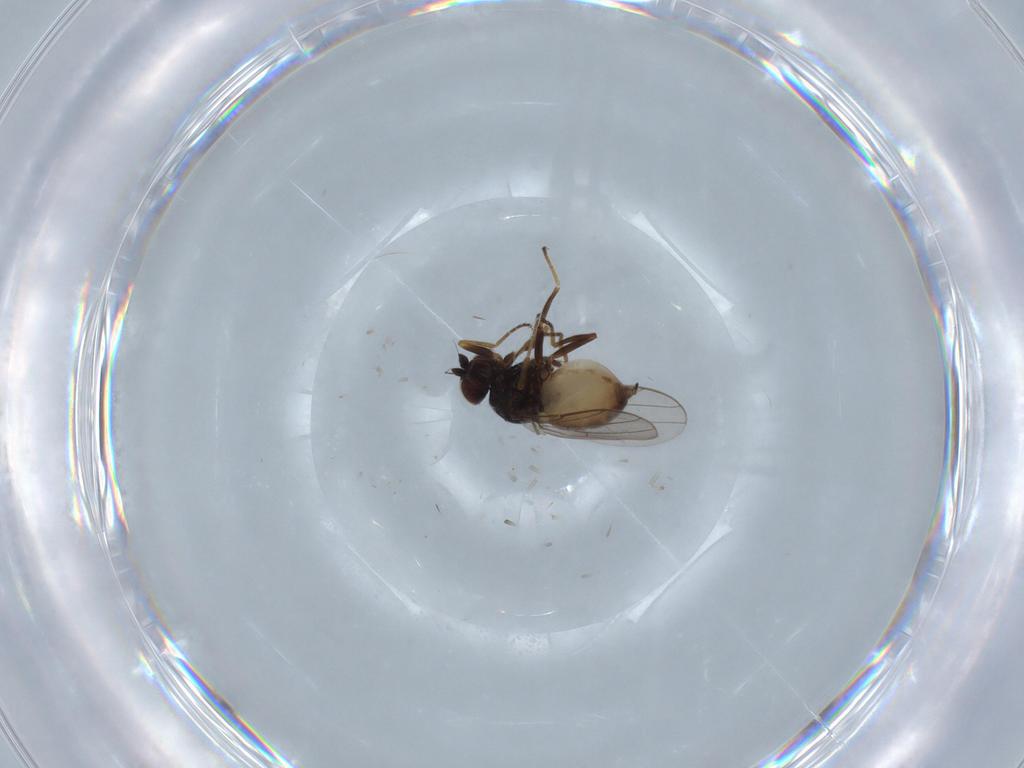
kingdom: Animalia
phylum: Arthropoda
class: Insecta
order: Diptera
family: Chloropidae
